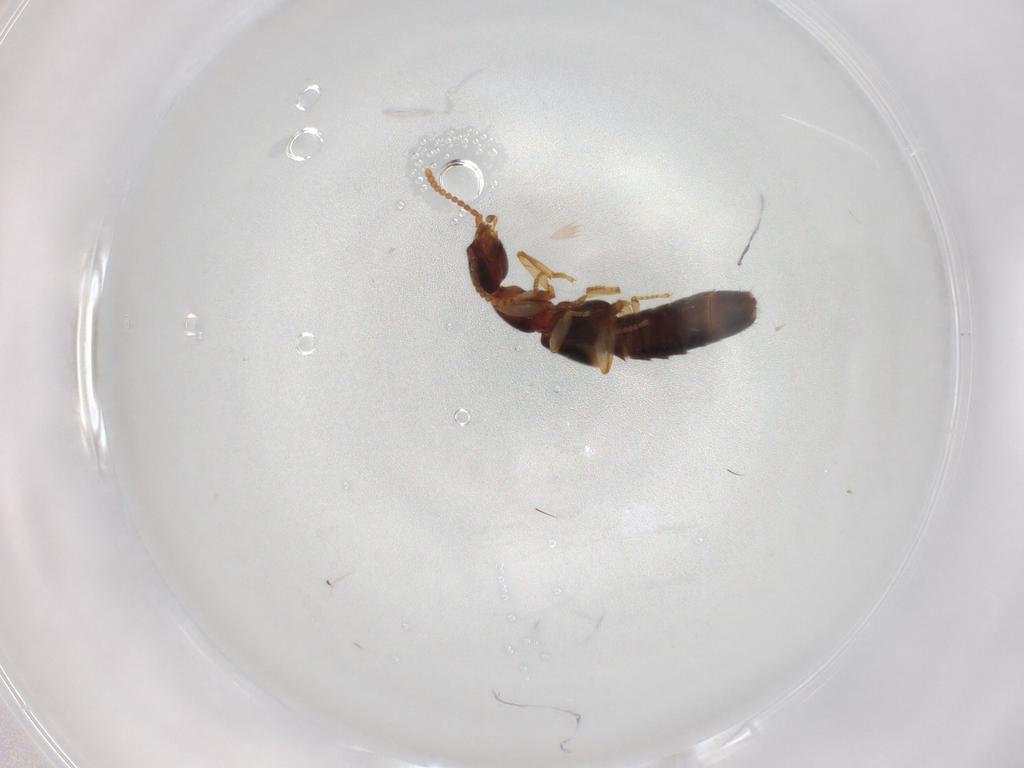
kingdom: Animalia
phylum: Arthropoda
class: Insecta
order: Coleoptera
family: Staphylinidae
